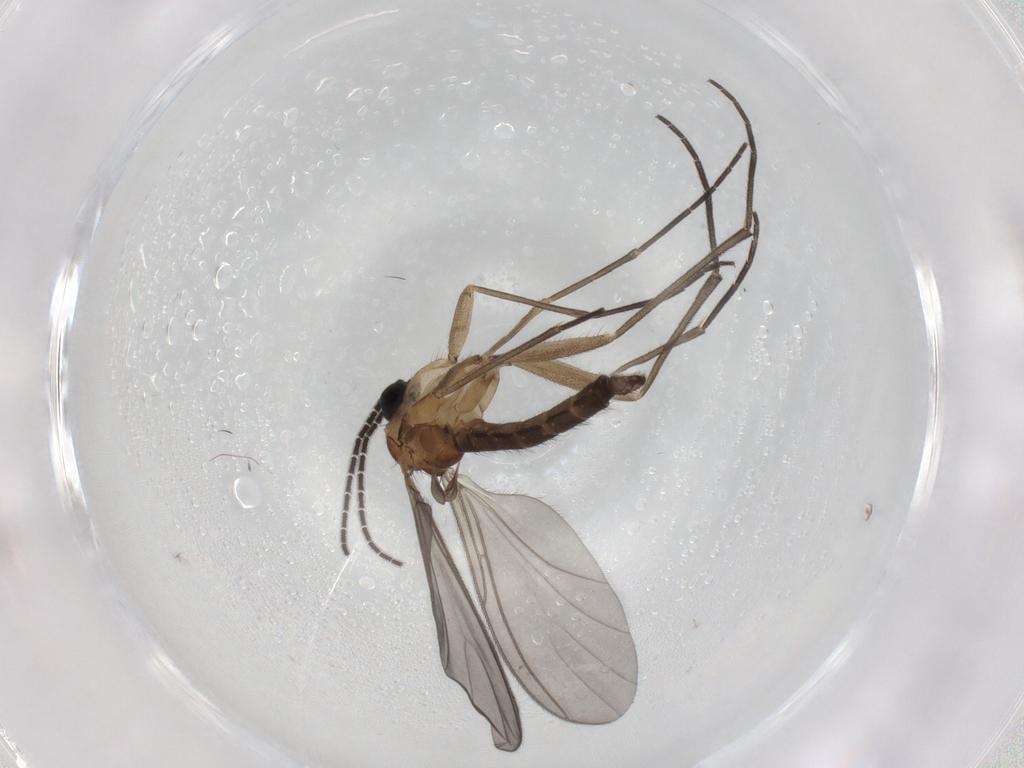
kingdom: Animalia
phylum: Arthropoda
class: Insecta
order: Diptera
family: Sciaridae
